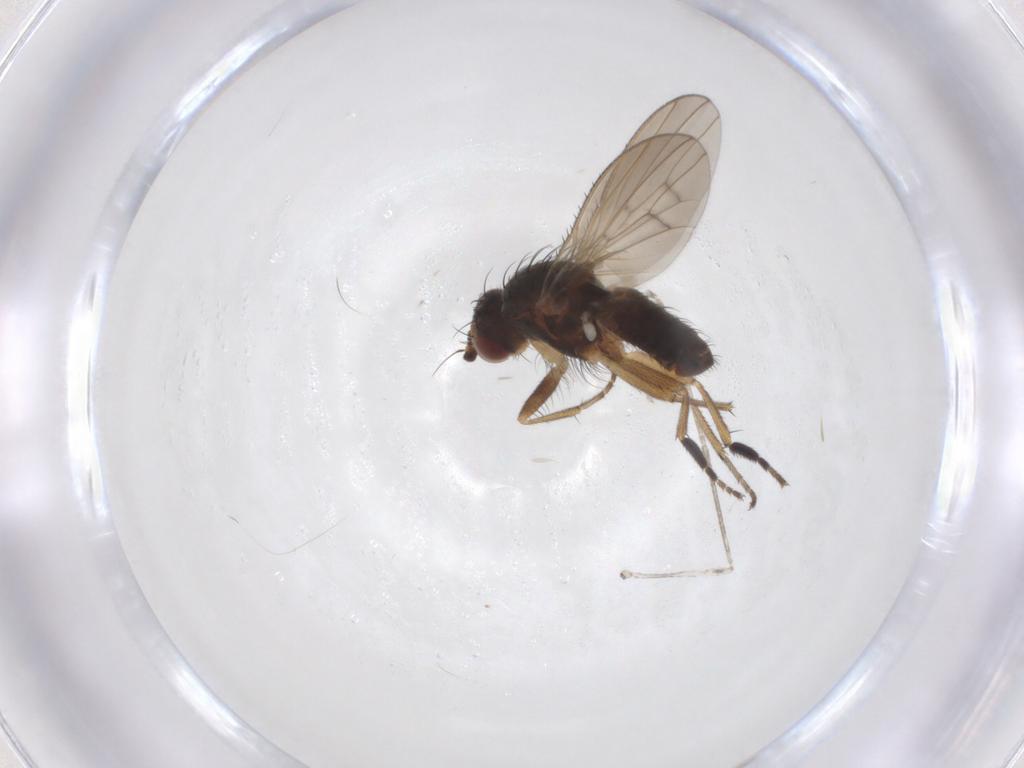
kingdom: Animalia
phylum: Arthropoda
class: Insecta
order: Diptera
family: Heleomyzidae
